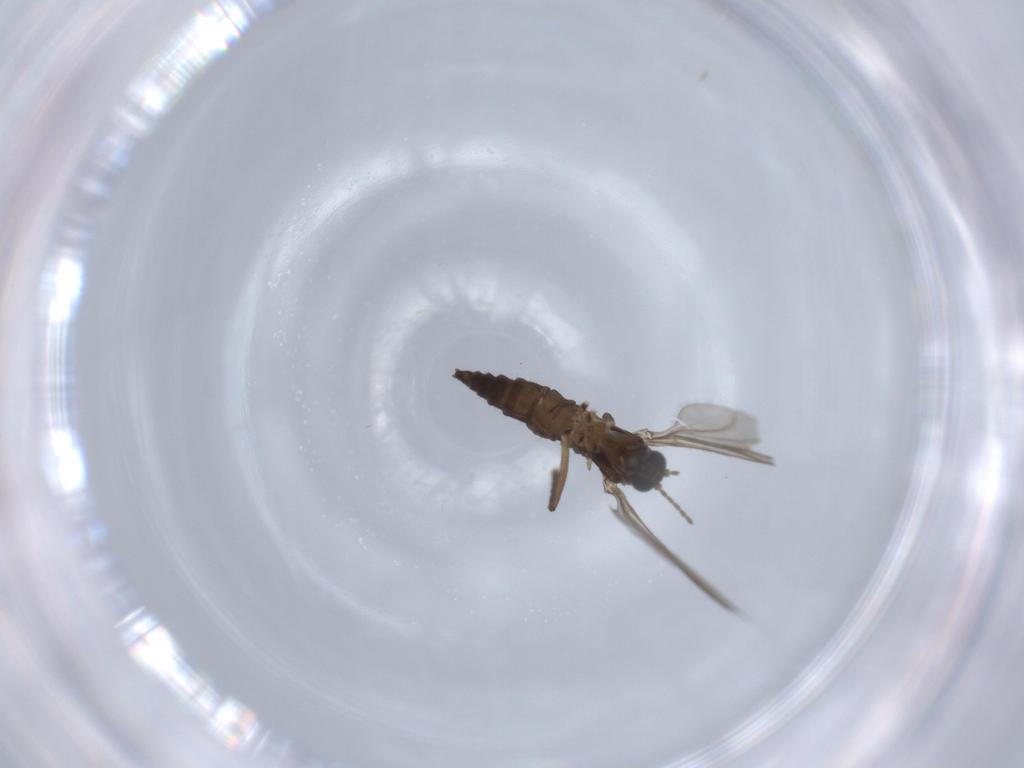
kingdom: Animalia
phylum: Arthropoda
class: Insecta
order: Diptera
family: Sciaridae
